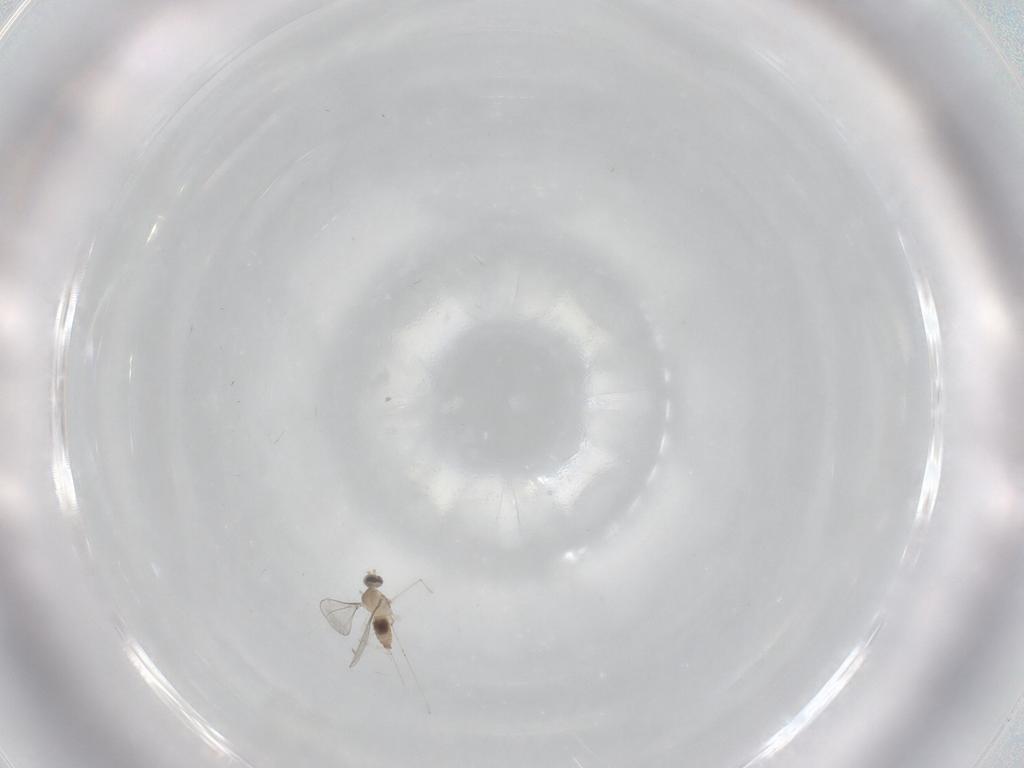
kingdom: Animalia
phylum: Arthropoda
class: Insecta
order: Diptera
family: Cecidomyiidae
